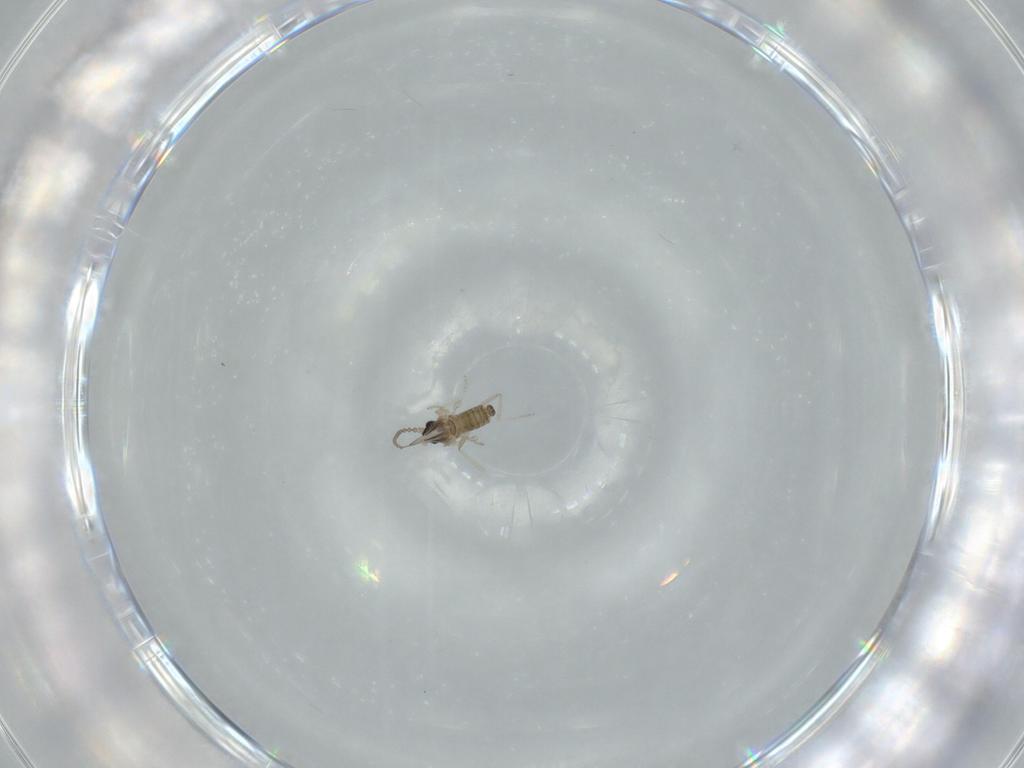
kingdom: Animalia
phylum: Arthropoda
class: Insecta
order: Diptera
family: Cecidomyiidae
